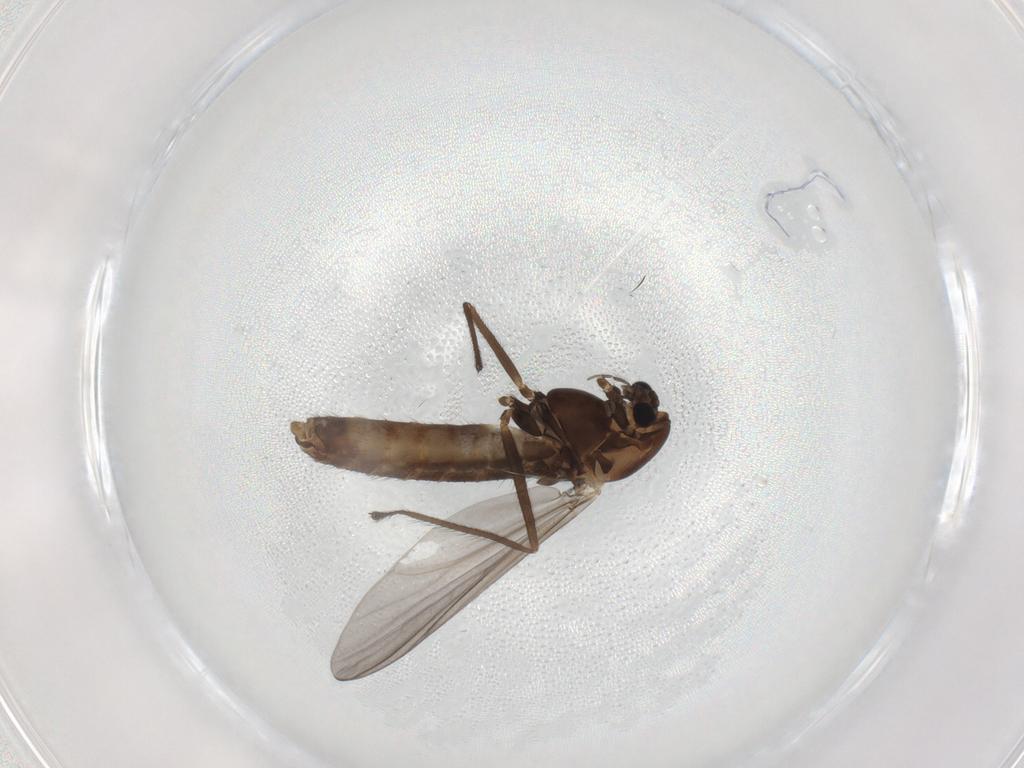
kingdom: Animalia
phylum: Arthropoda
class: Insecta
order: Diptera
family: Chironomidae
